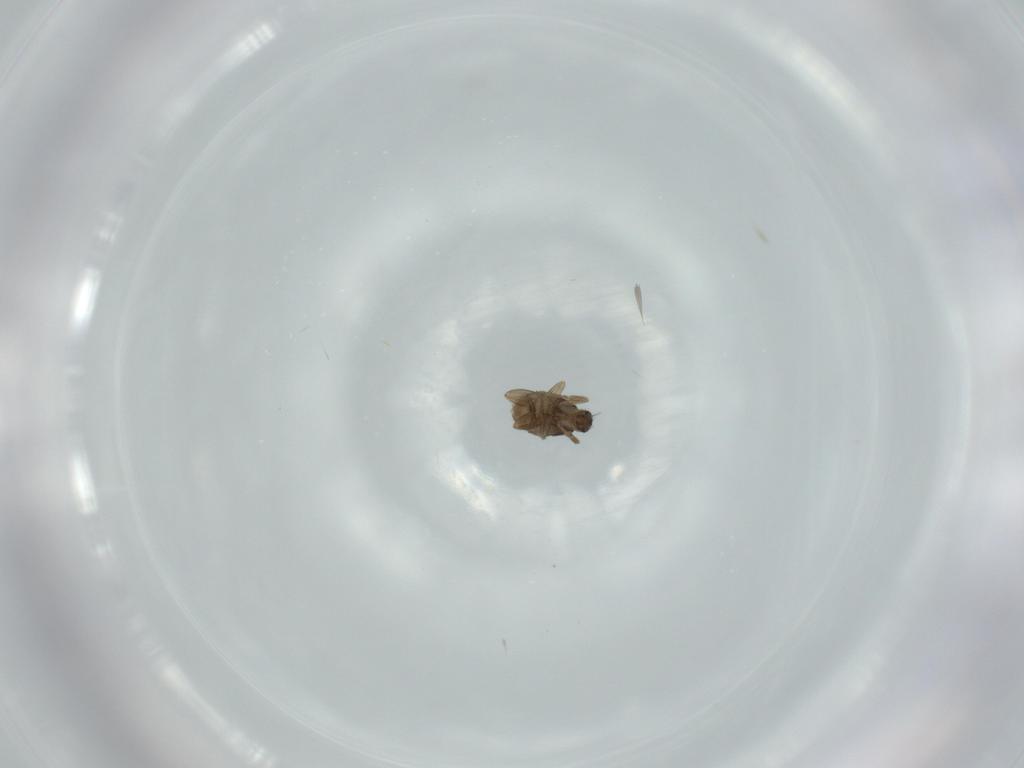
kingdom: Animalia
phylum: Arthropoda
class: Insecta
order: Diptera
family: Phoridae
